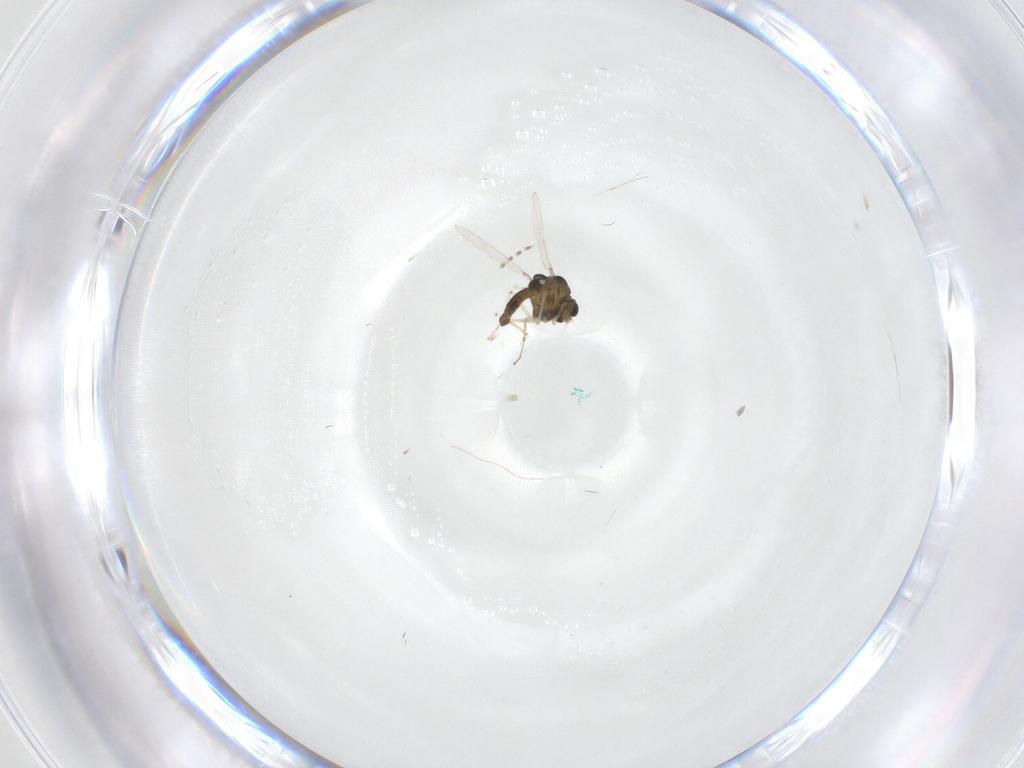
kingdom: Animalia
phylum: Arthropoda
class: Insecta
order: Diptera
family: Cecidomyiidae
